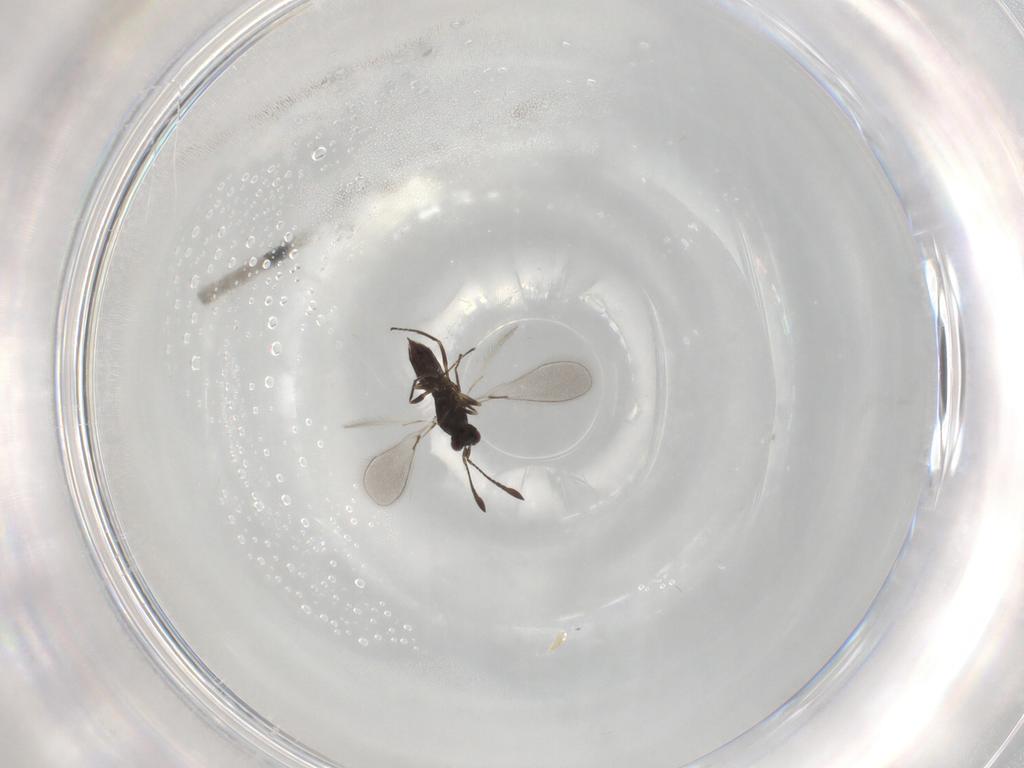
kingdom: Animalia
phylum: Arthropoda
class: Insecta
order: Hymenoptera
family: Mymaridae
